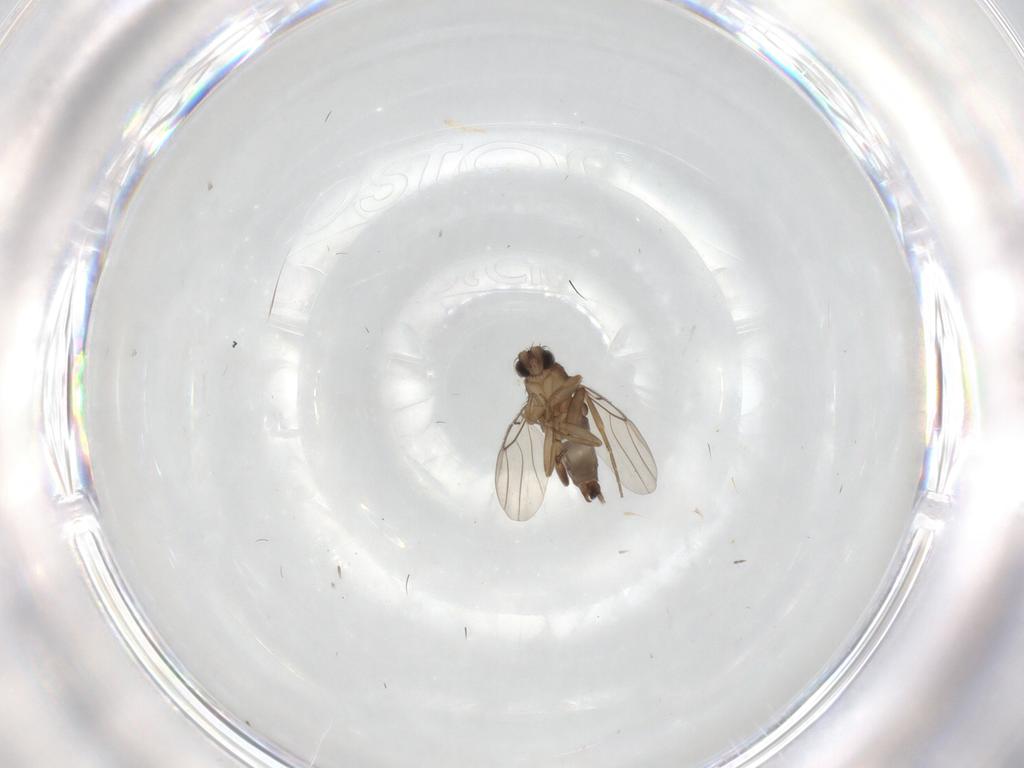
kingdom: Animalia
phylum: Arthropoda
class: Insecta
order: Diptera
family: Phoridae
